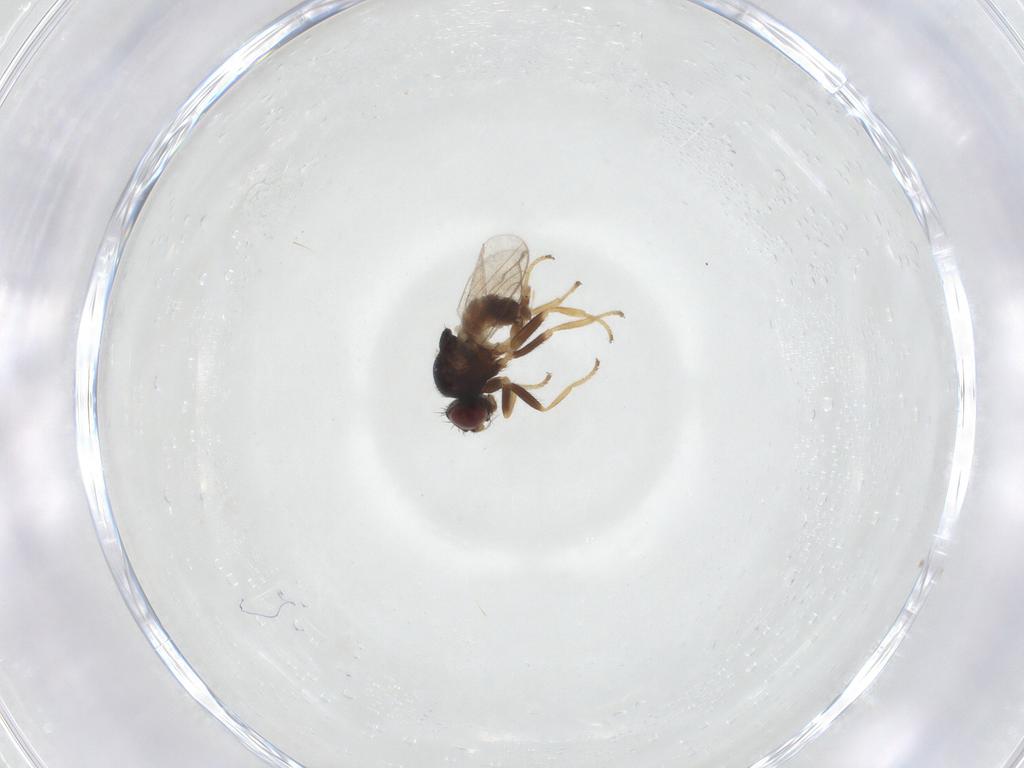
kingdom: Animalia
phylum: Arthropoda
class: Insecta
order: Diptera
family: Chloropidae
